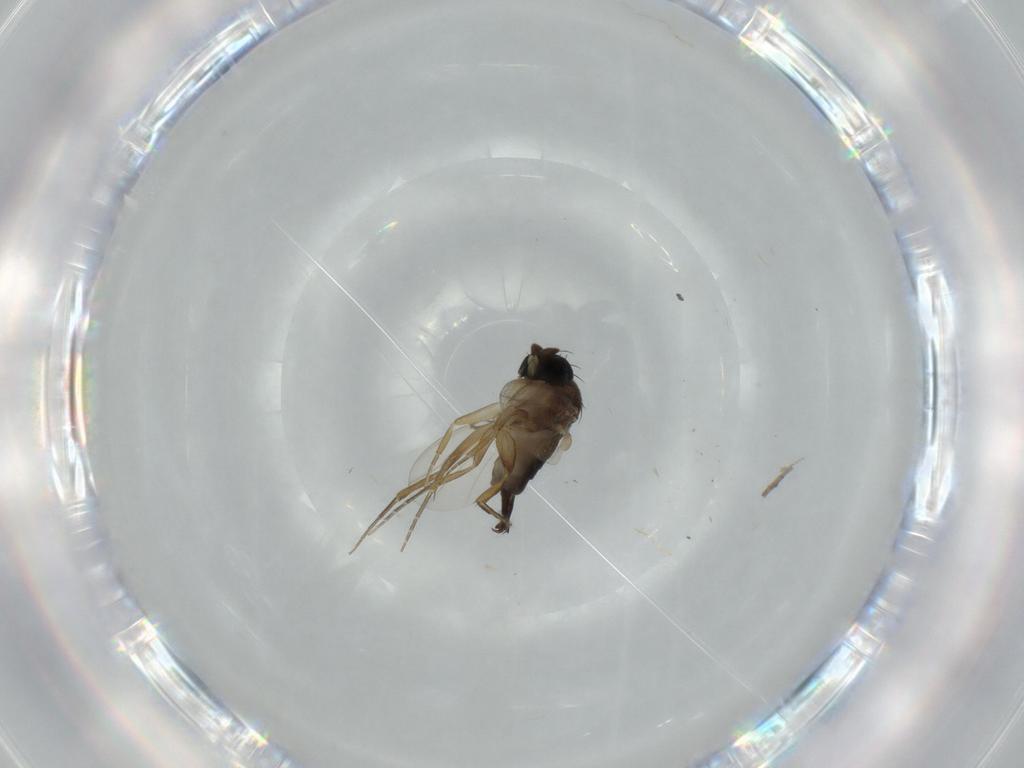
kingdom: Animalia
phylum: Arthropoda
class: Insecta
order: Diptera
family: Phoridae
